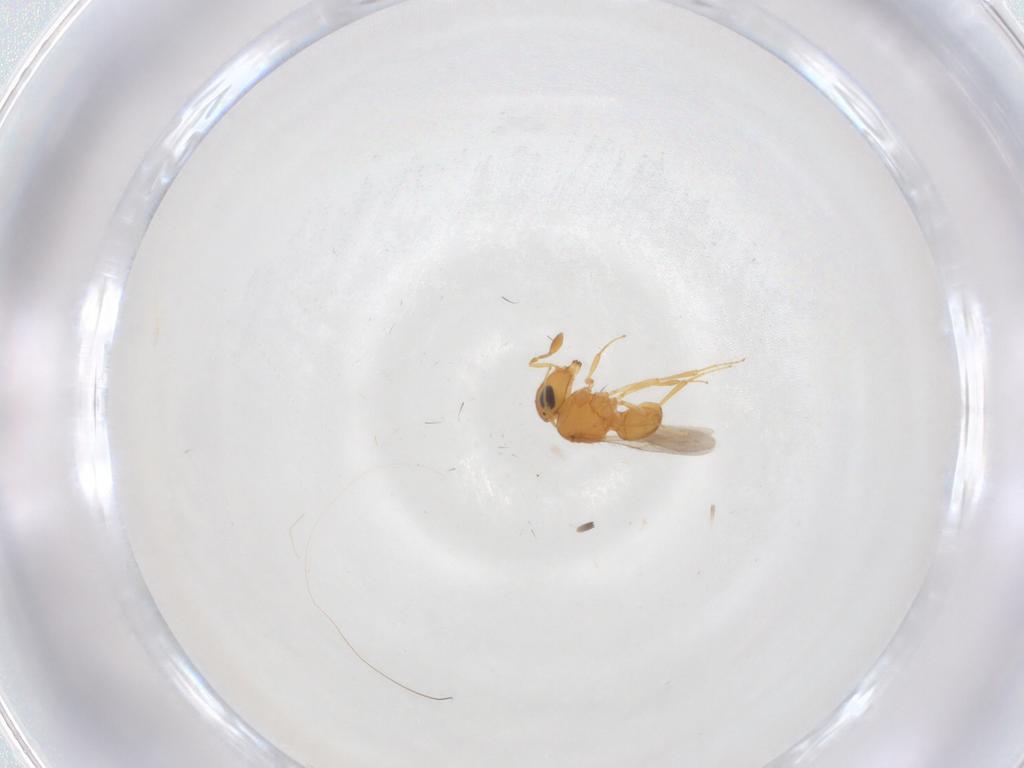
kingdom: Animalia
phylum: Arthropoda
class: Insecta
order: Hymenoptera
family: Scelionidae
